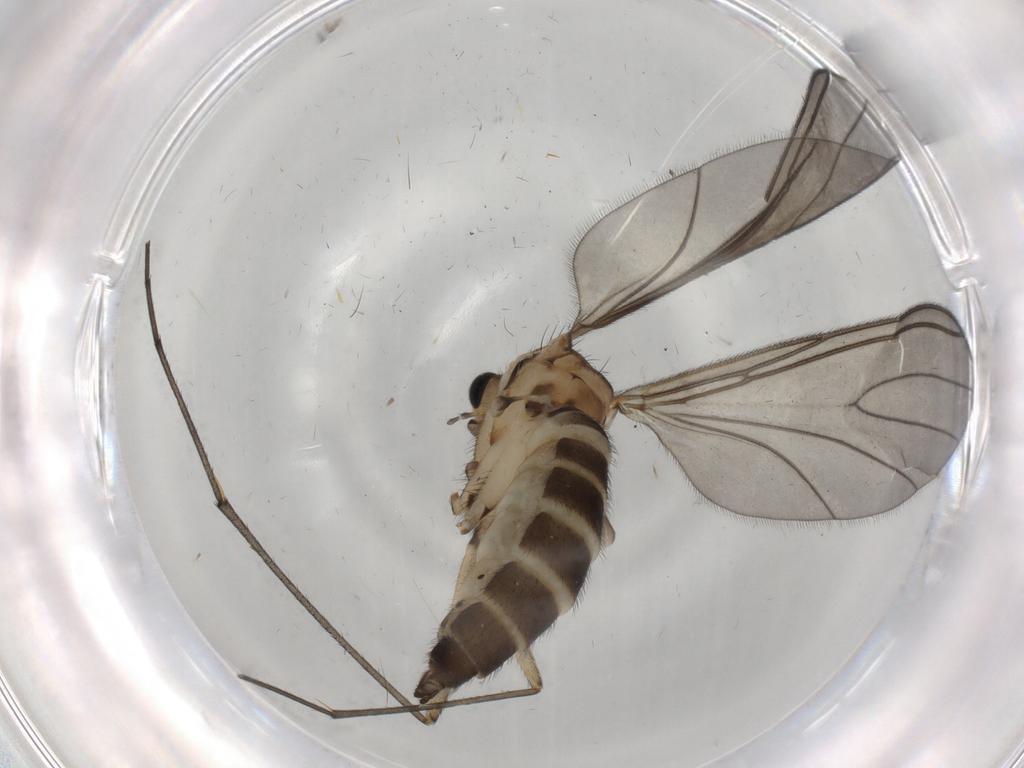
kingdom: Animalia
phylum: Arthropoda
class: Insecta
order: Diptera
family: Sciaridae
